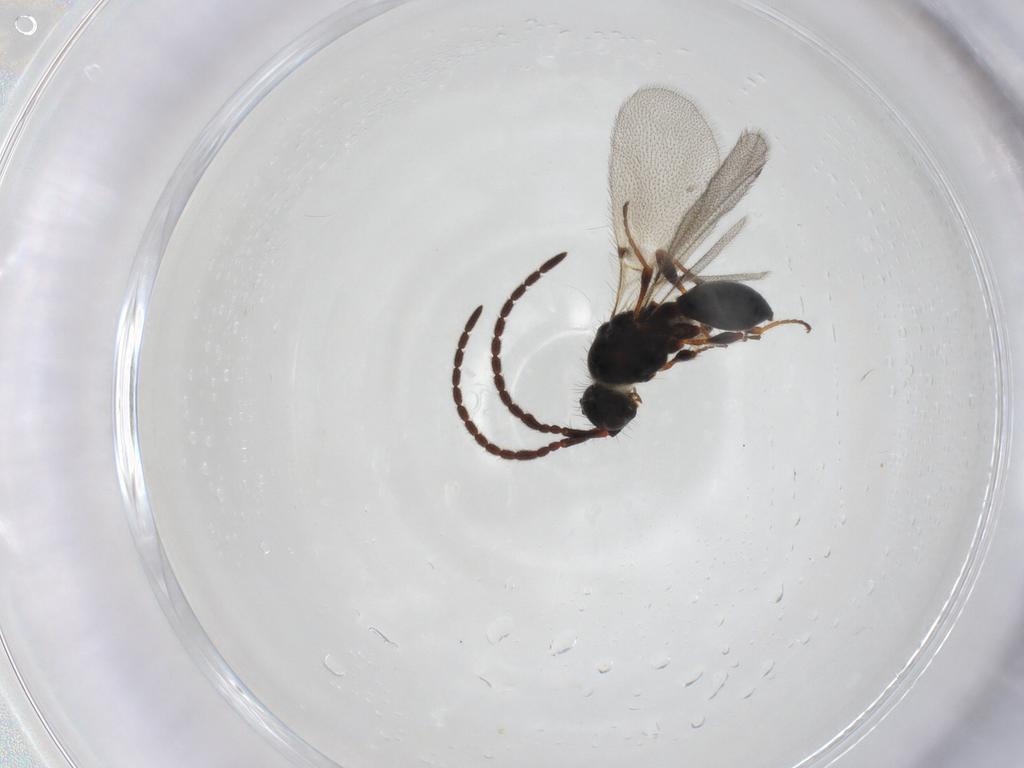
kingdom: Animalia
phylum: Arthropoda
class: Insecta
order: Hymenoptera
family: Diapriidae
